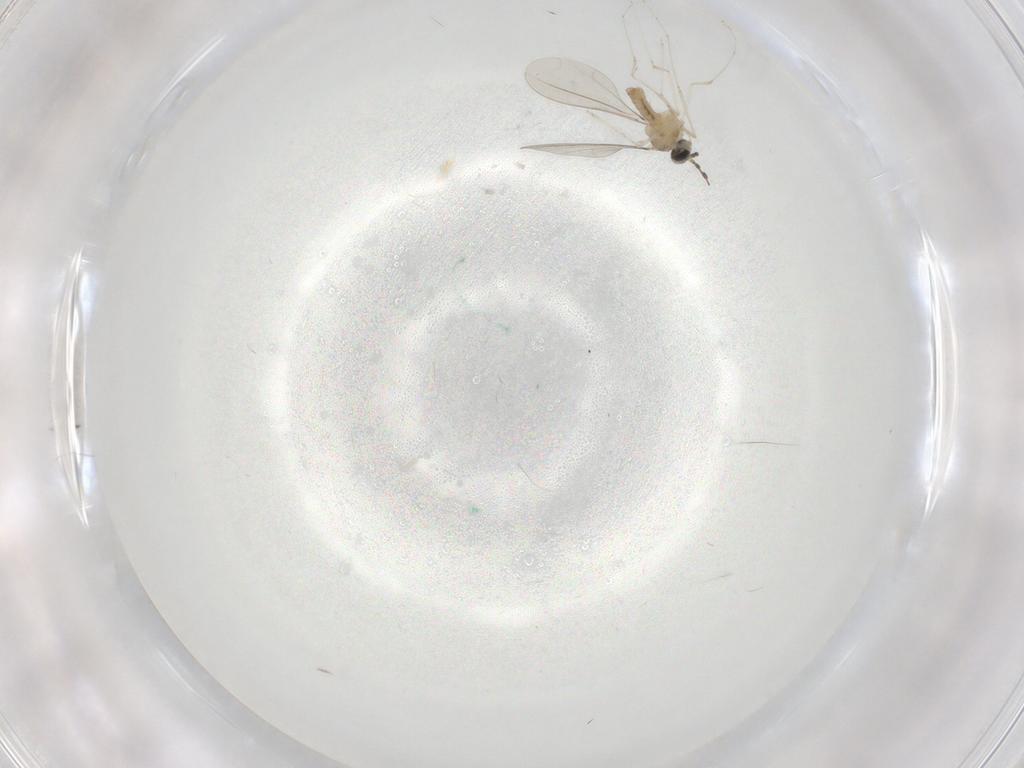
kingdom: Animalia
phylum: Arthropoda
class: Insecta
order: Diptera
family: Cecidomyiidae
